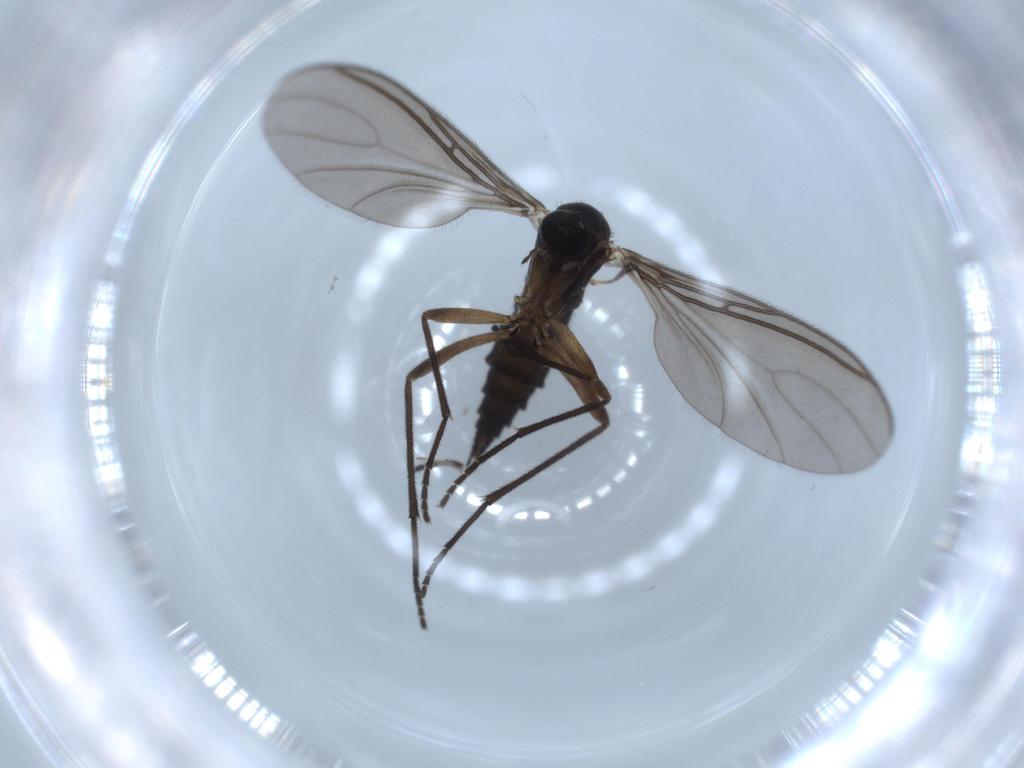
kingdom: Animalia
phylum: Arthropoda
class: Insecta
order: Diptera
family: Sciaridae
